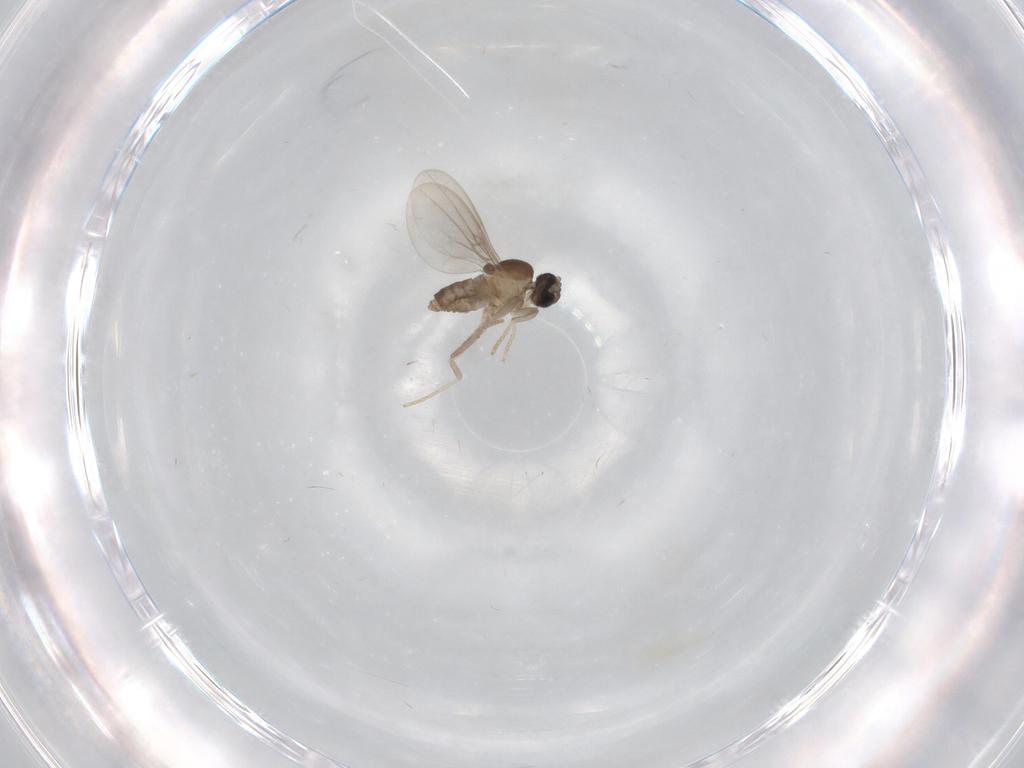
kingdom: Animalia
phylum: Arthropoda
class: Insecta
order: Diptera
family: Cecidomyiidae
